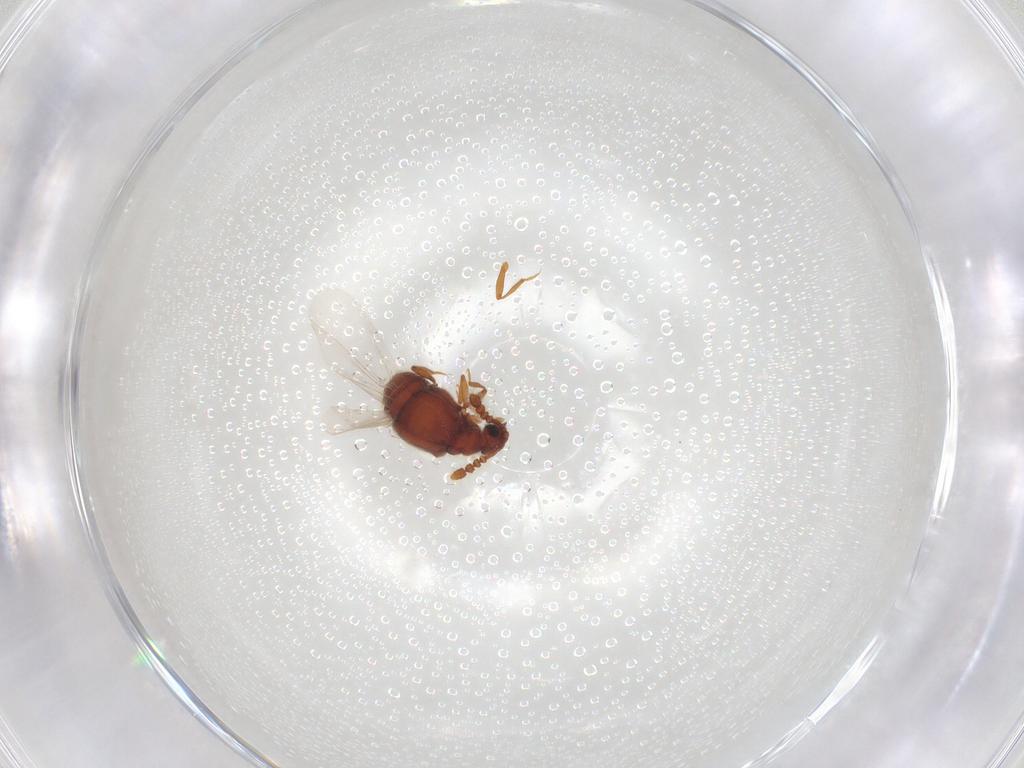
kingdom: Animalia
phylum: Arthropoda
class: Insecta
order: Coleoptera
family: Staphylinidae
